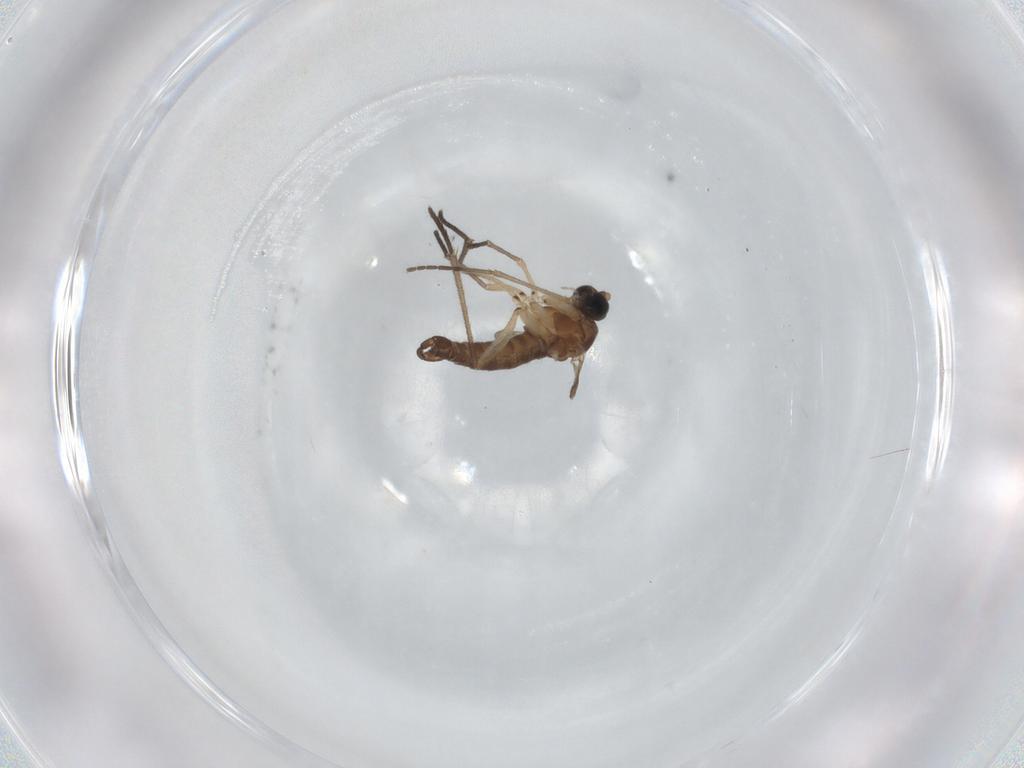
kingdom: Animalia
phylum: Arthropoda
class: Insecta
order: Diptera
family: Sciaridae
